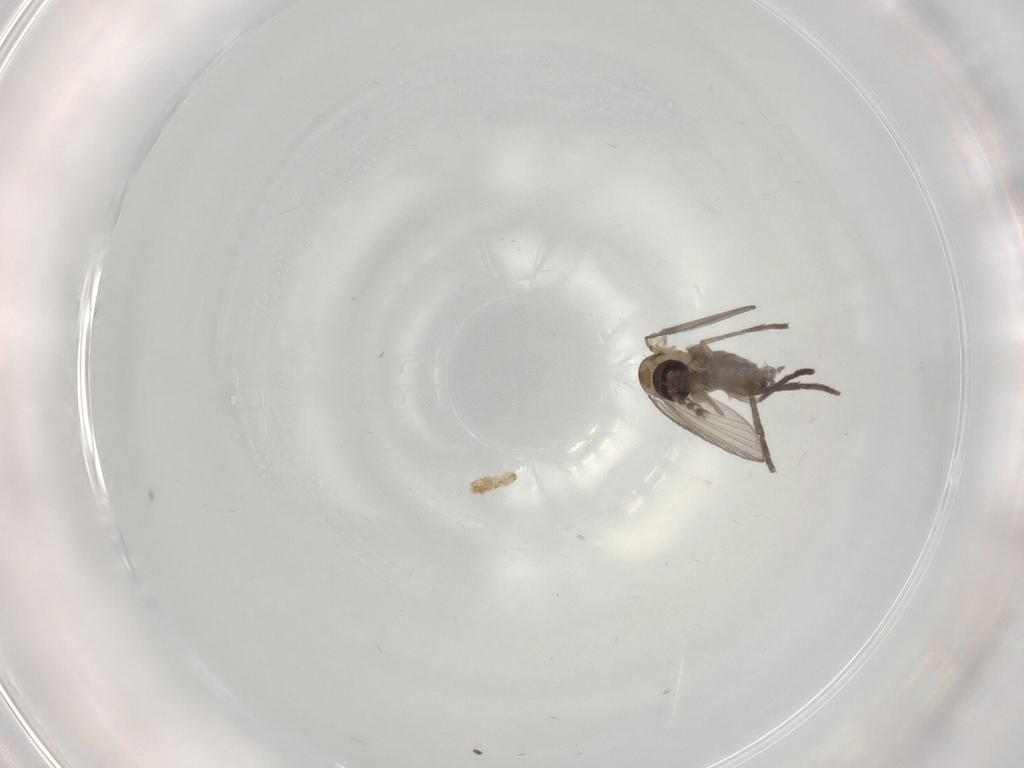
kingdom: Animalia
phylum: Arthropoda
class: Insecta
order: Diptera
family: Psychodidae
